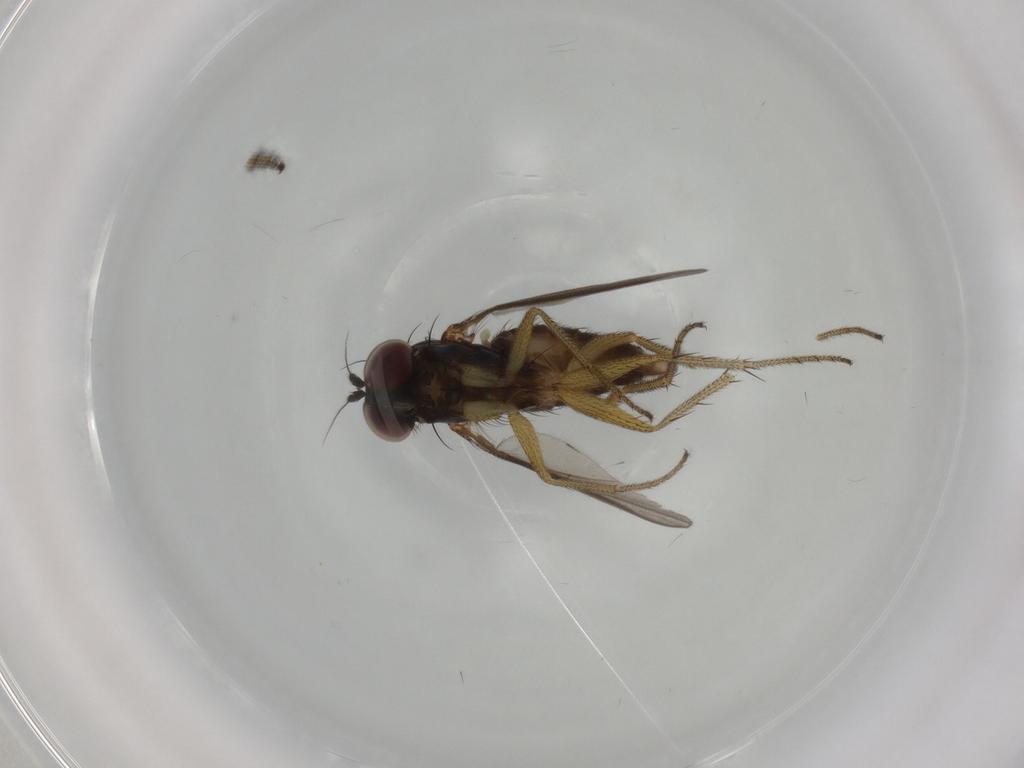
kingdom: Animalia
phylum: Arthropoda
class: Insecta
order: Diptera
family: Dolichopodidae
